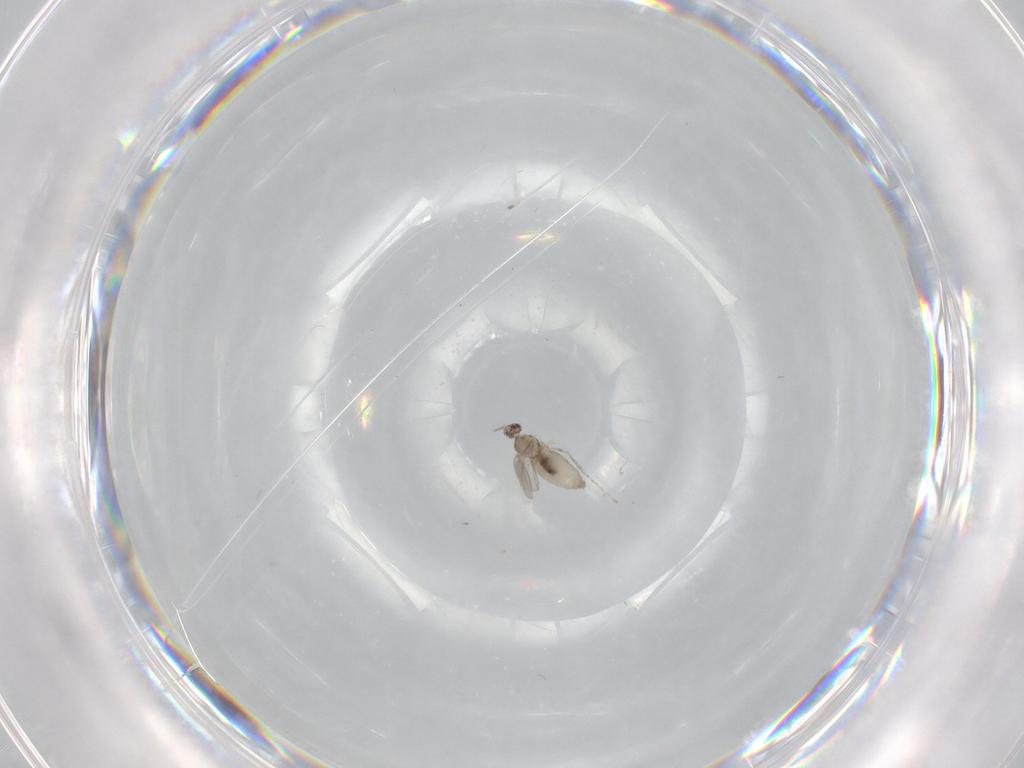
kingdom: Animalia
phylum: Arthropoda
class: Insecta
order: Diptera
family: Cecidomyiidae
